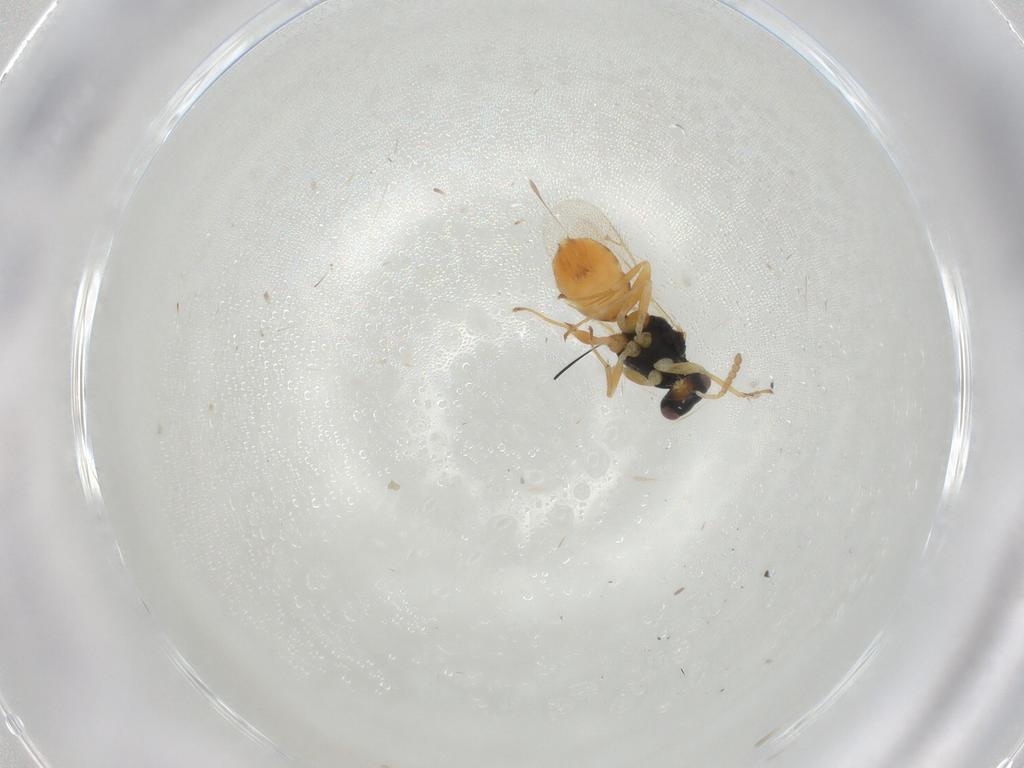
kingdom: Animalia
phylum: Arthropoda
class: Insecta
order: Hymenoptera
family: Eulophidae
